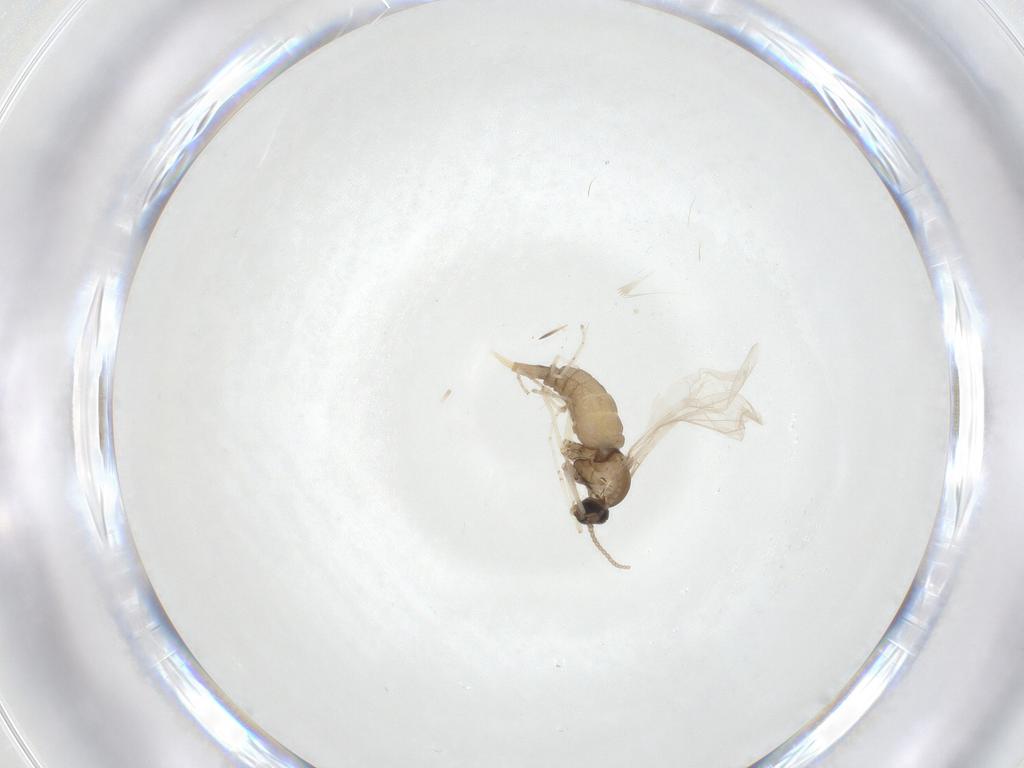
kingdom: Animalia
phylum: Arthropoda
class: Insecta
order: Diptera
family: Cecidomyiidae
